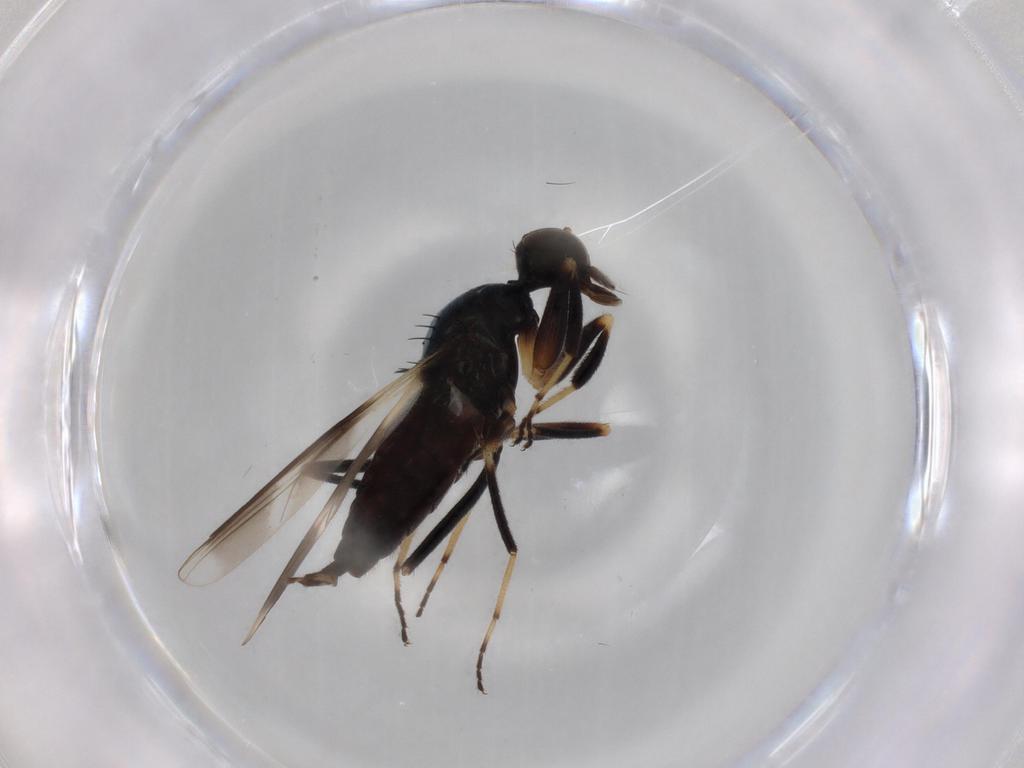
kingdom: Animalia
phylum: Arthropoda
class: Insecta
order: Diptera
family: Hybotidae
